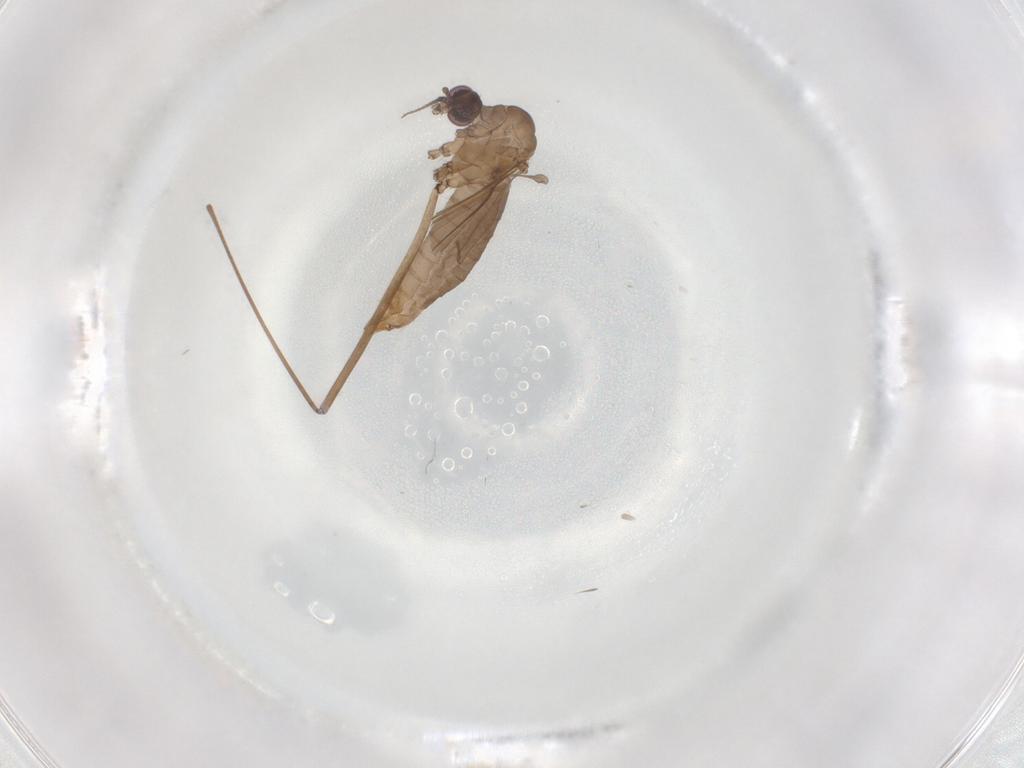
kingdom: Animalia
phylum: Arthropoda
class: Insecta
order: Diptera
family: Limoniidae
